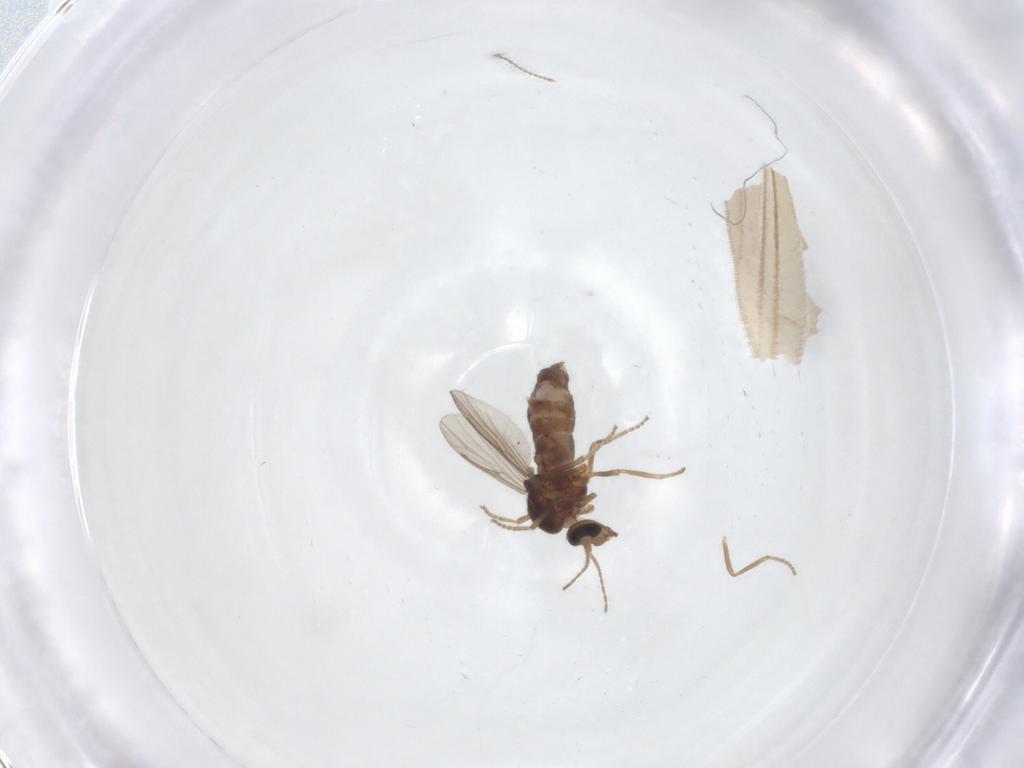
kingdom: Animalia
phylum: Arthropoda
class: Insecta
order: Diptera
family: Ceratopogonidae
